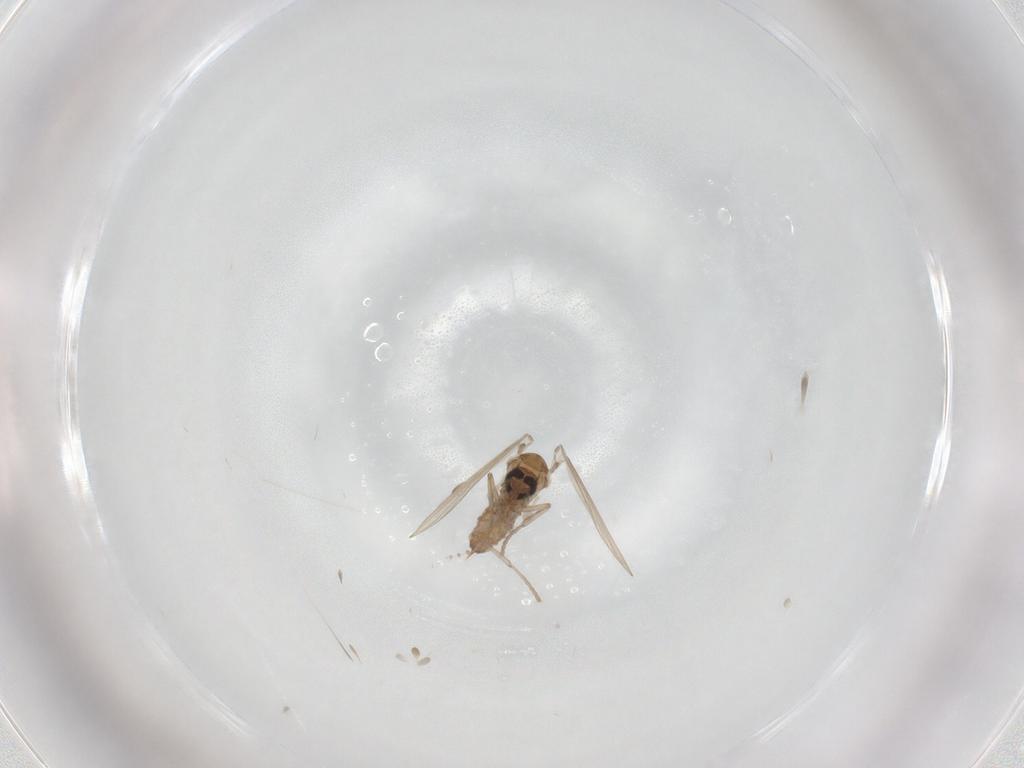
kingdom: Animalia
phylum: Arthropoda
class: Insecta
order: Diptera
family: Psychodidae
